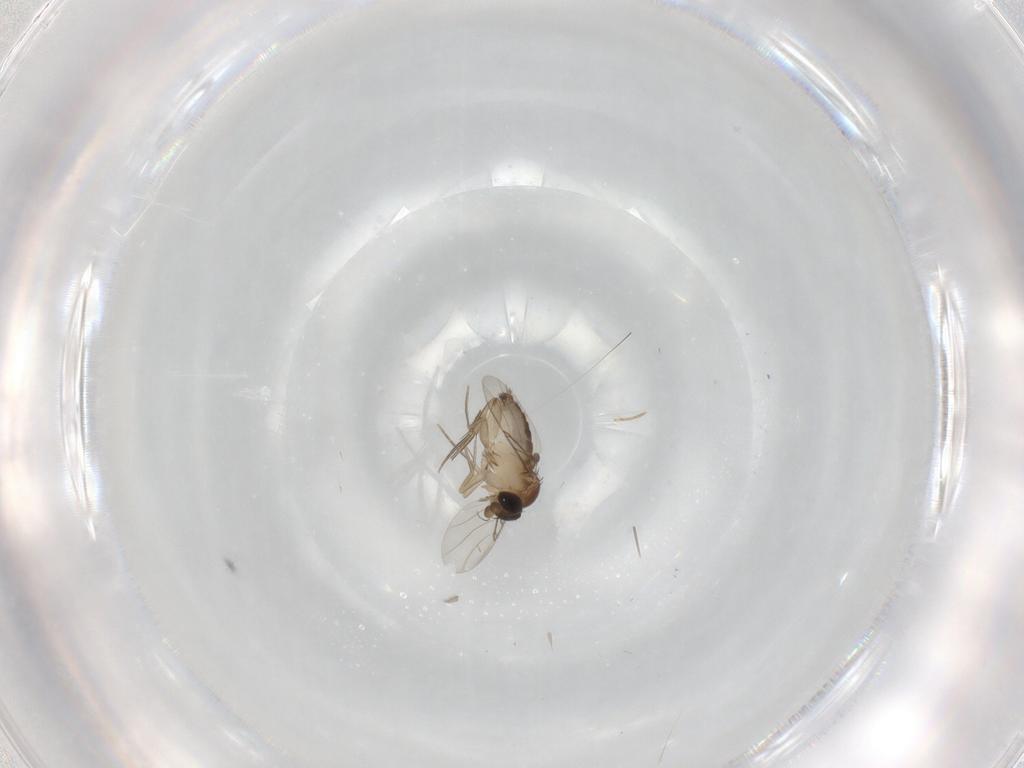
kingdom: Animalia
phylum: Arthropoda
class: Insecta
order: Diptera
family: Phoridae
